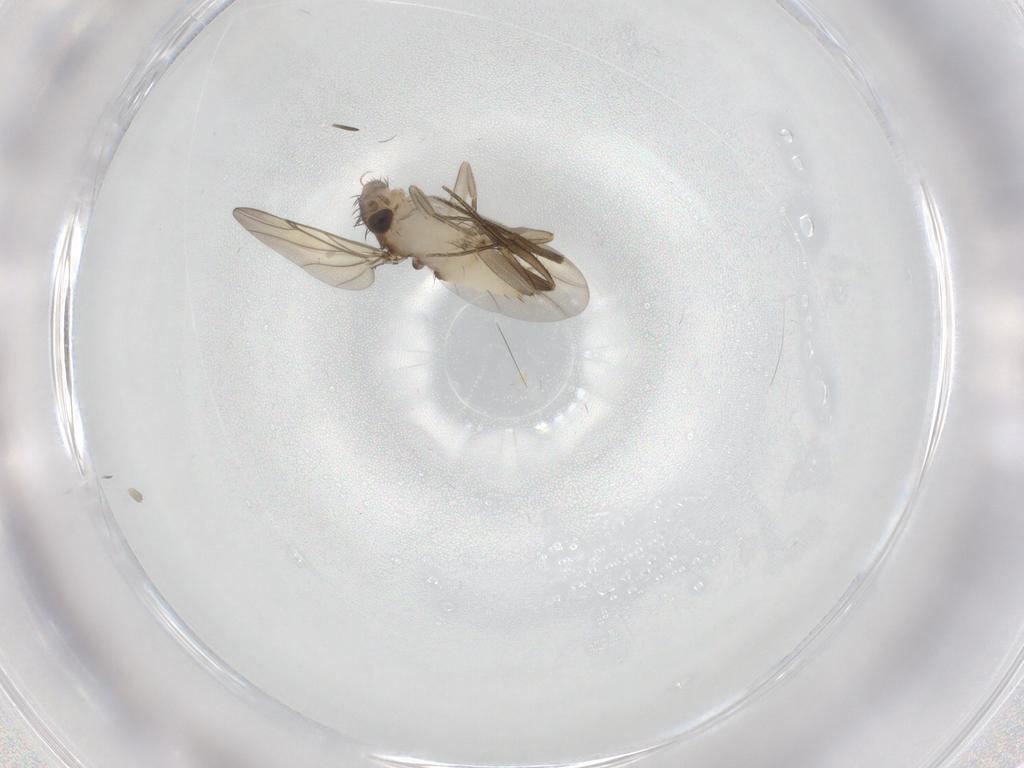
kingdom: Animalia
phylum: Arthropoda
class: Insecta
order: Diptera
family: Phoridae
